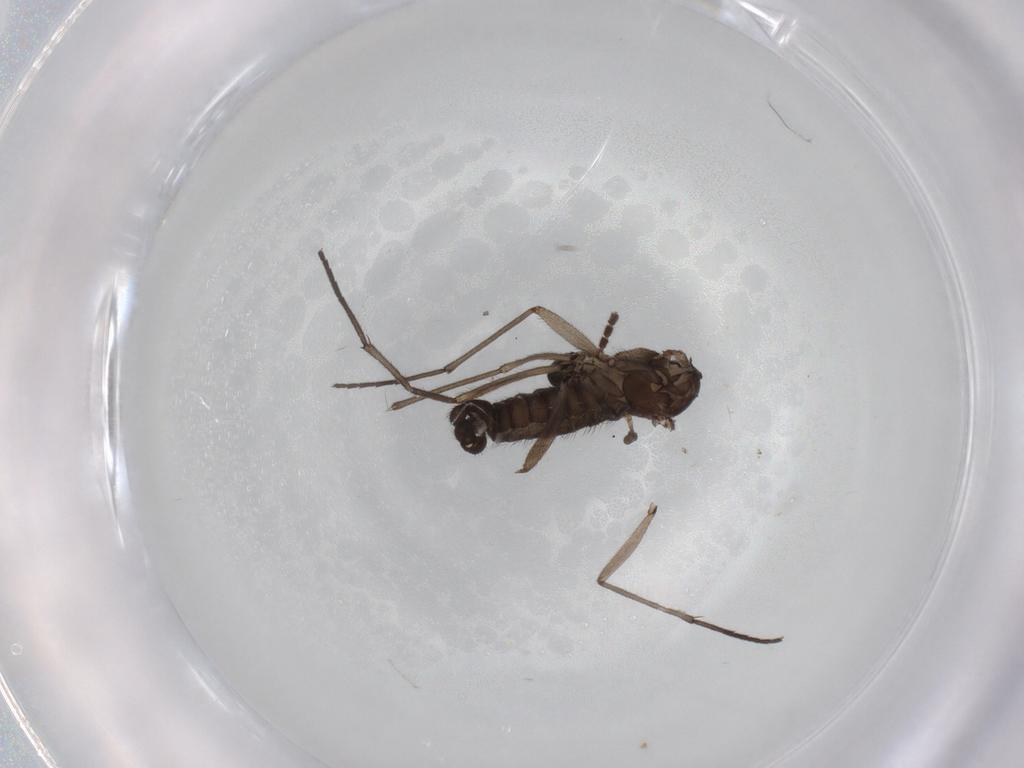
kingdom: Animalia
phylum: Arthropoda
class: Insecta
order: Diptera
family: Sciaridae
